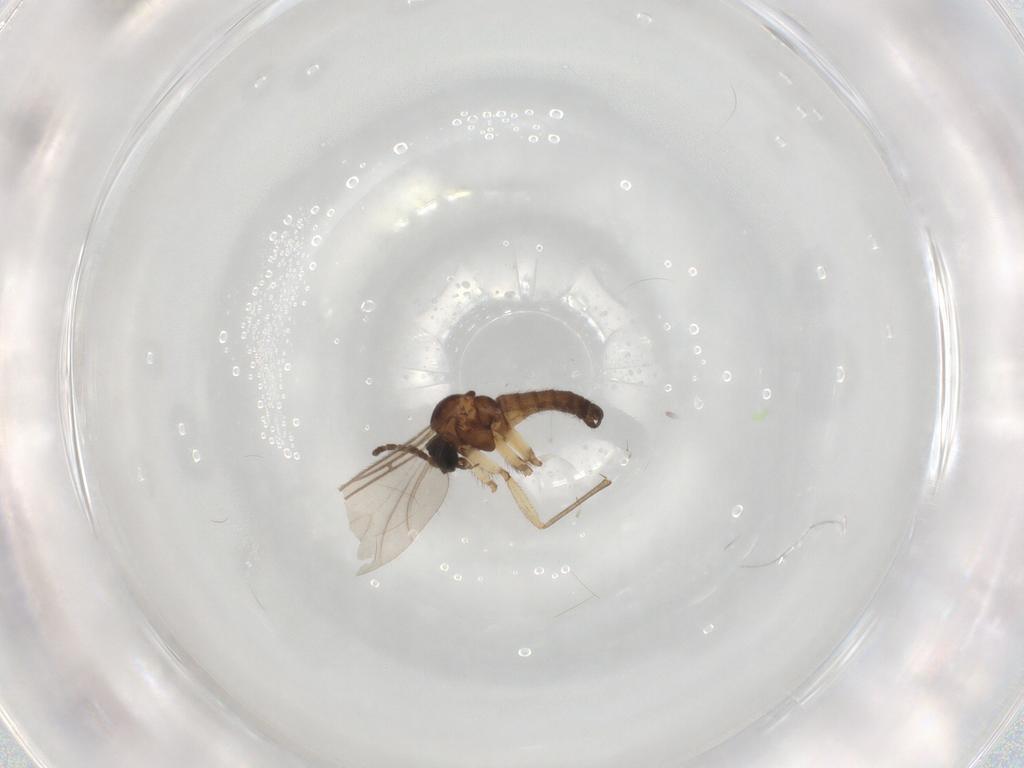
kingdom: Animalia
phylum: Arthropoda
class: Insecta
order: Diptera
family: Sciaridae
